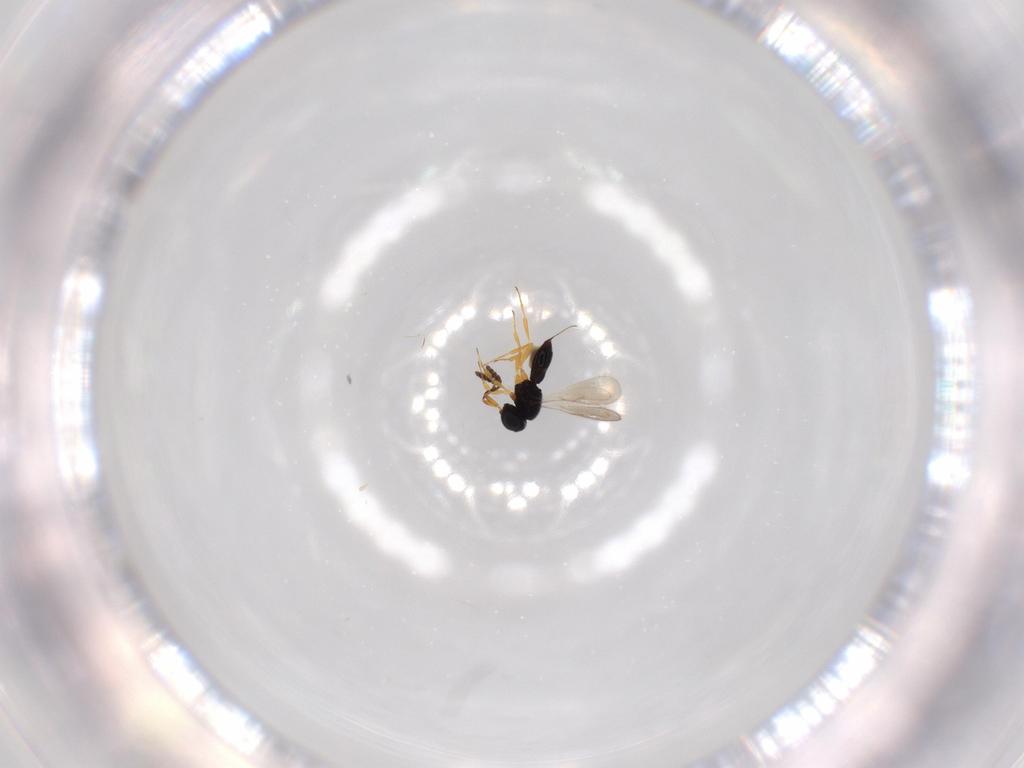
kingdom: Animalia
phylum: Arthropoda
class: Insecta
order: Hymenoptera
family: Scelionidae
